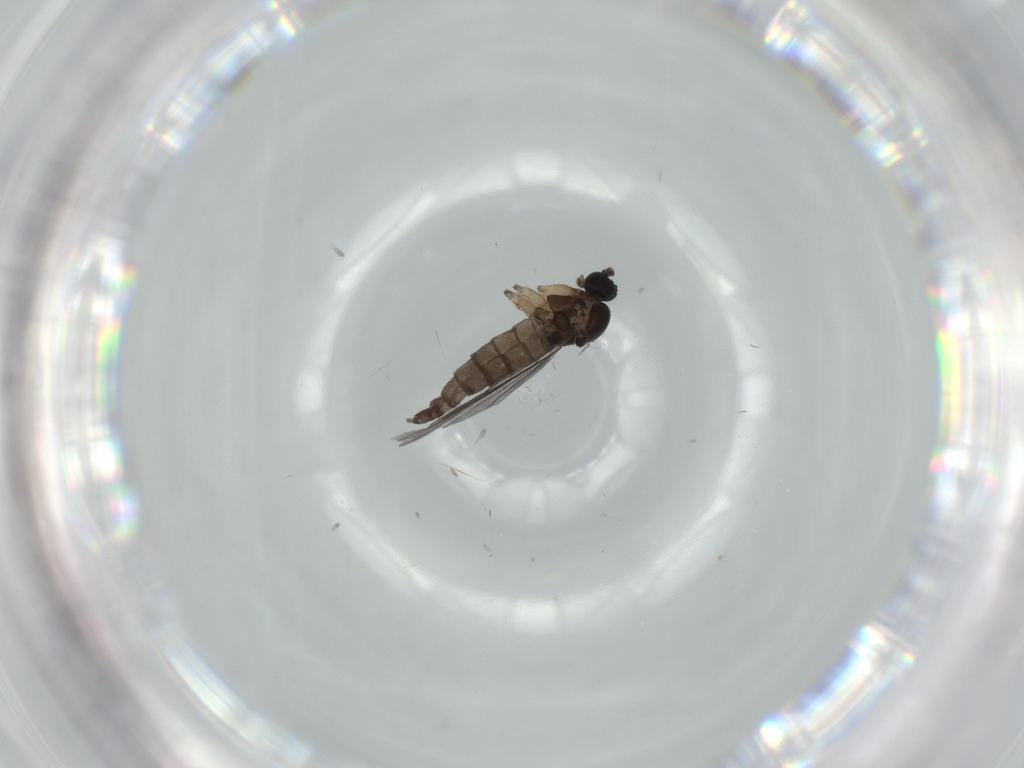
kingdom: Animalia
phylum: Arthropoda
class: Insecta
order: Diptera
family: Sciaridae
